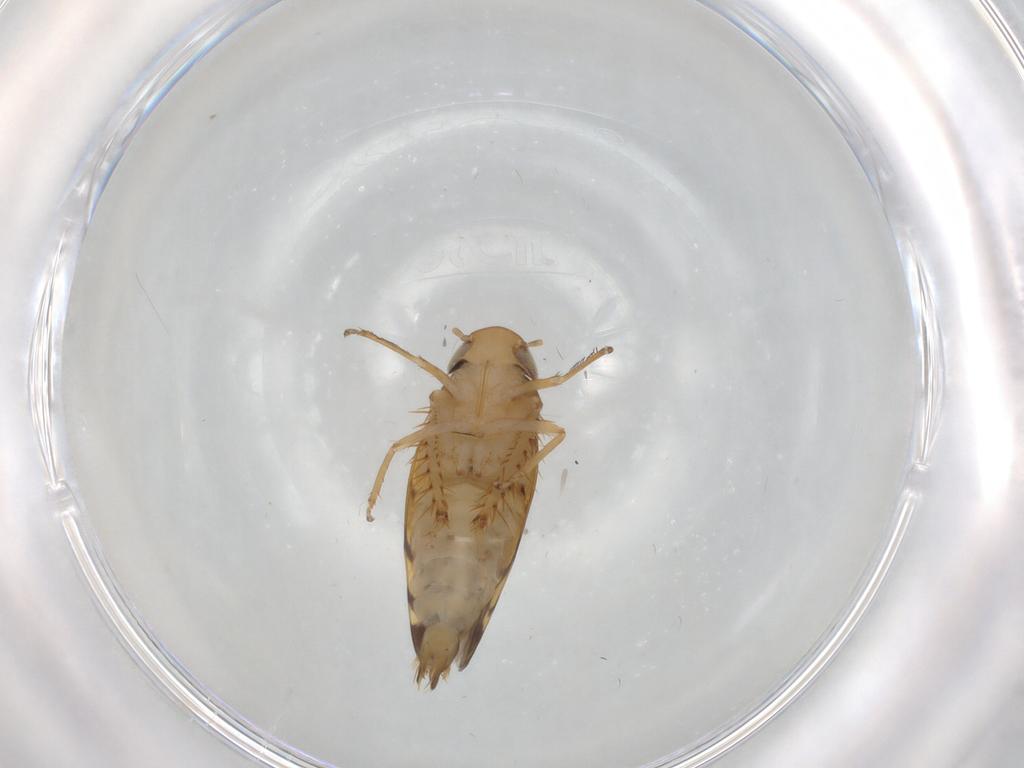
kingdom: Animalia
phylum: Arthropoda
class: Insecta
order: Hemiptera
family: Cicadellidae
